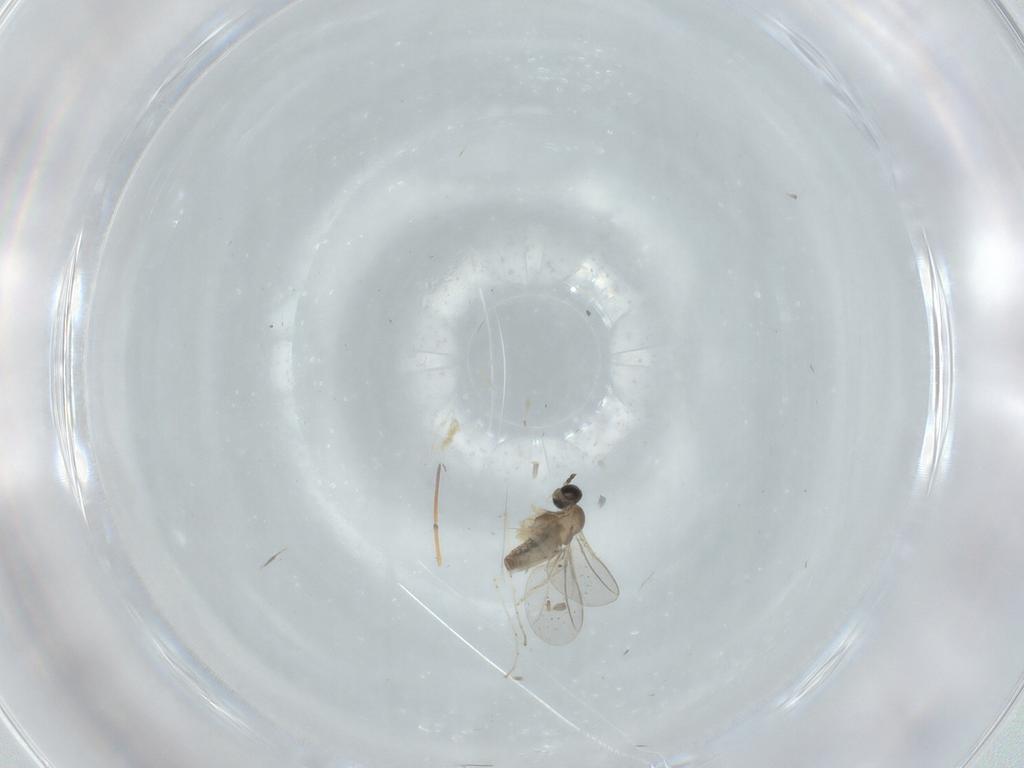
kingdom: Animalia
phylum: Arthropoda
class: Insecta
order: Diptera
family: Cecidomyiidae
